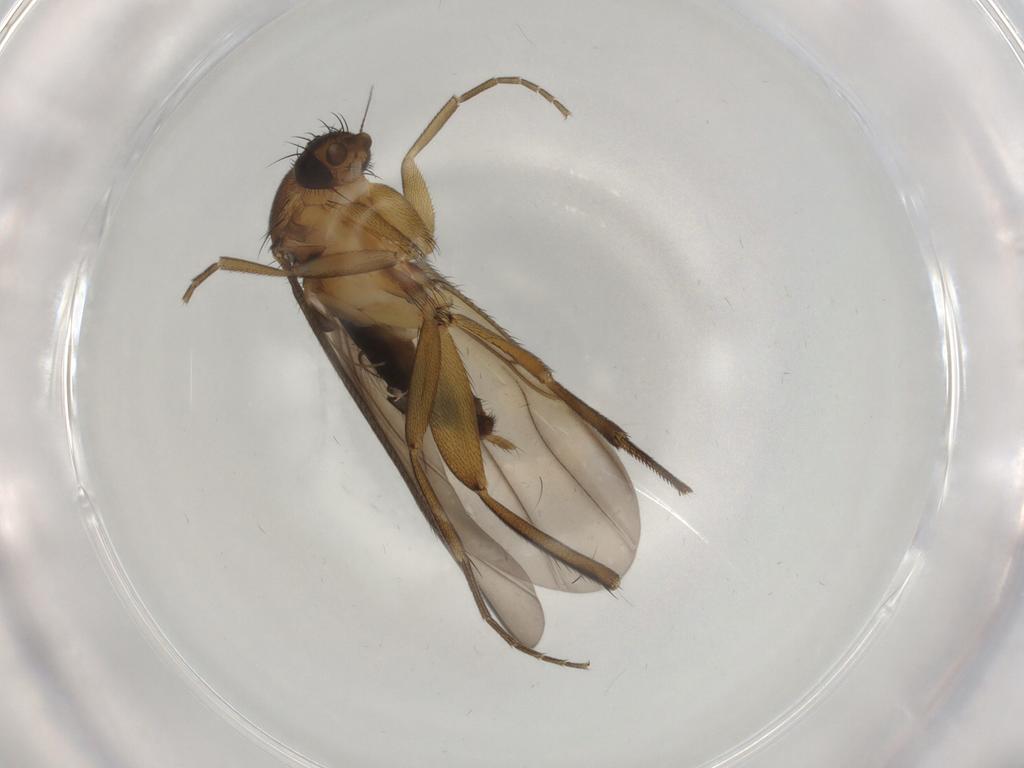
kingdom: Animalia
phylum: Arthropoda
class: Insecta
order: Diptera
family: Phoridae
